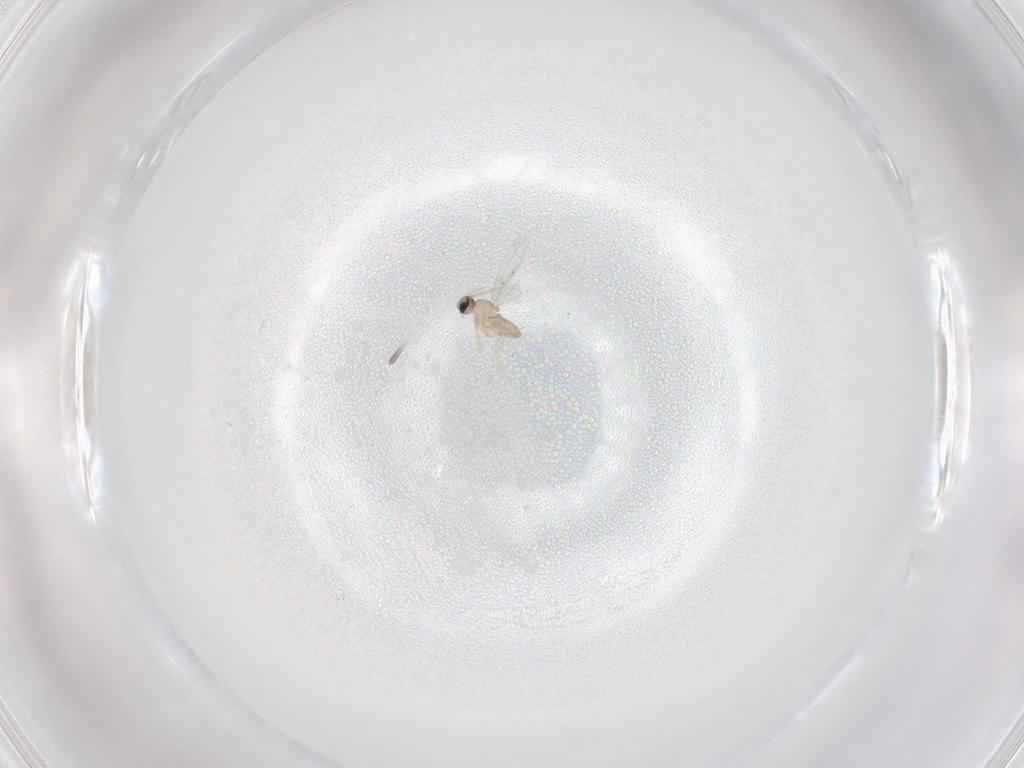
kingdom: Animalia
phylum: Arthropoda
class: Insecta
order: Diptera
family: Cecidomyiidae
